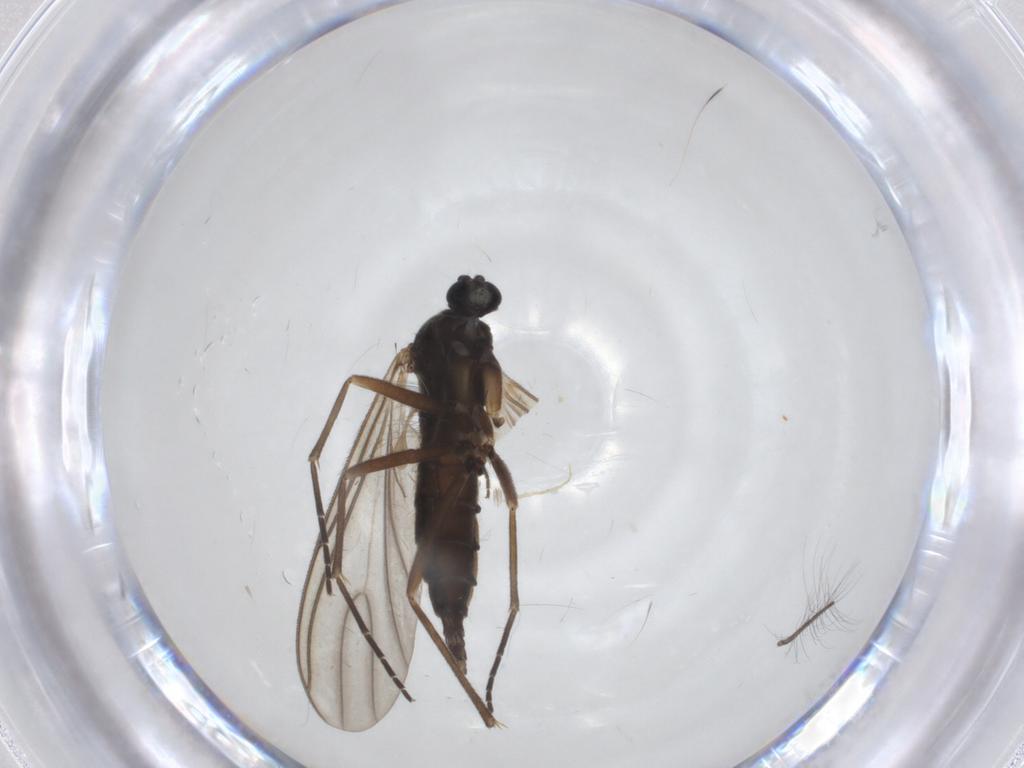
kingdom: Animalia
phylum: Arthropoda
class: Insecta
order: Diptera
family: Sciaridae
